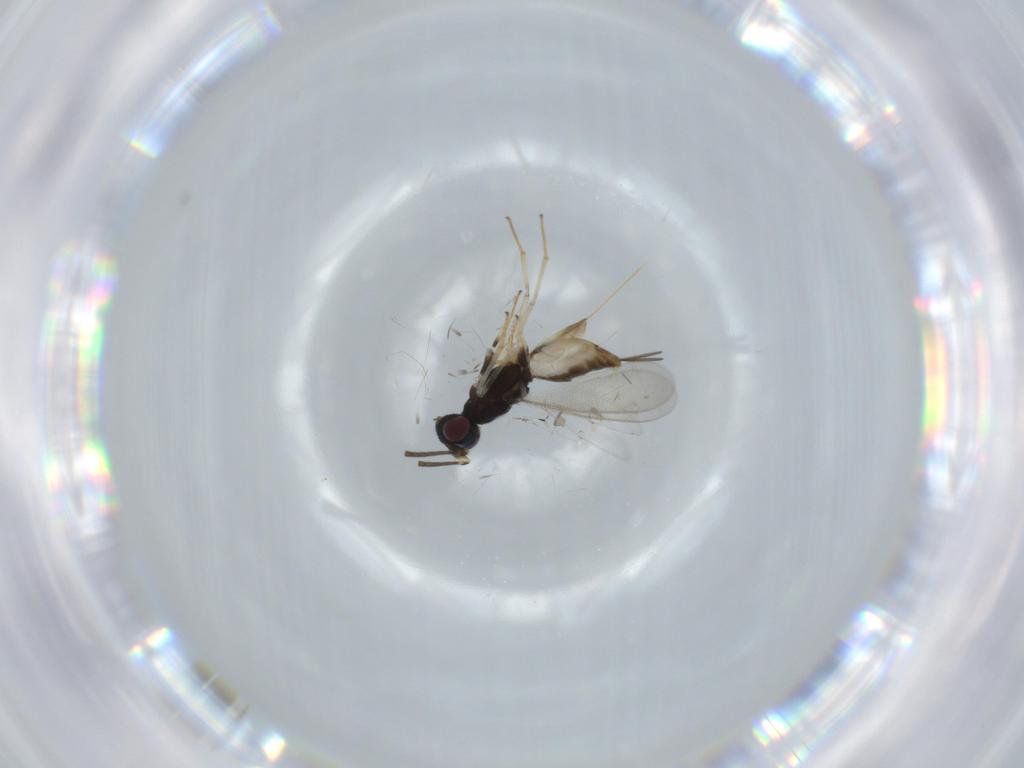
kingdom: Animalia
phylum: Arthropoda
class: Insecta
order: Hymenoptera
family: Eupelmidae
